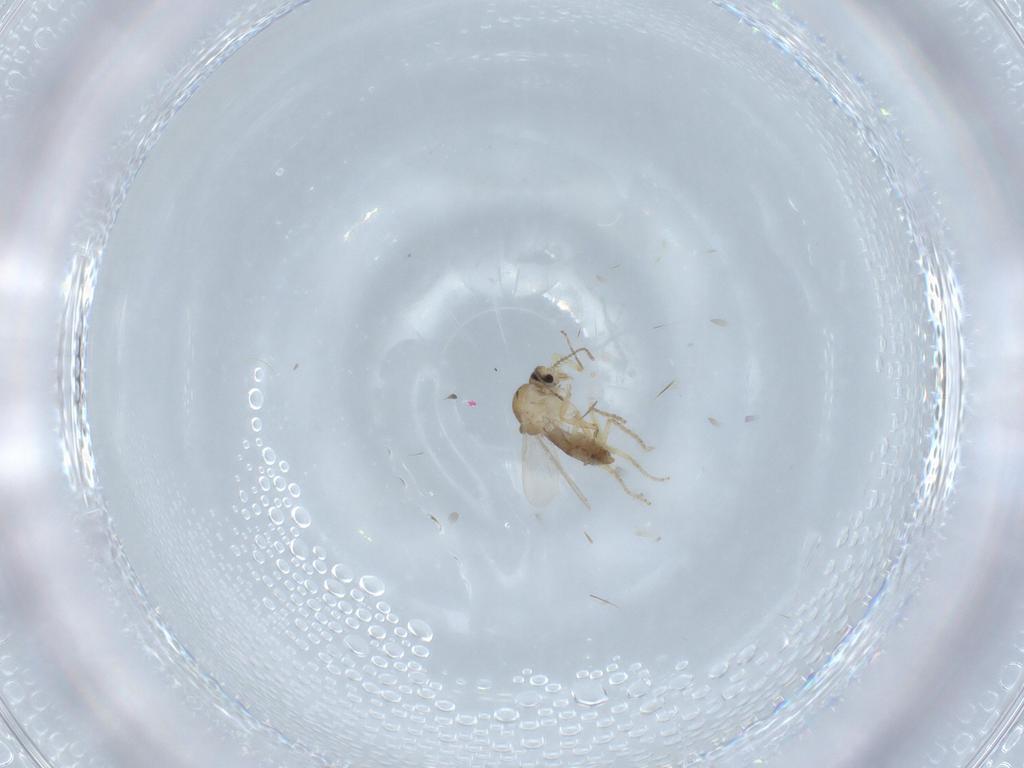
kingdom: Animalia
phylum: Arthropoda
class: Insecta
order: Diptera
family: Ceratopogonidae
